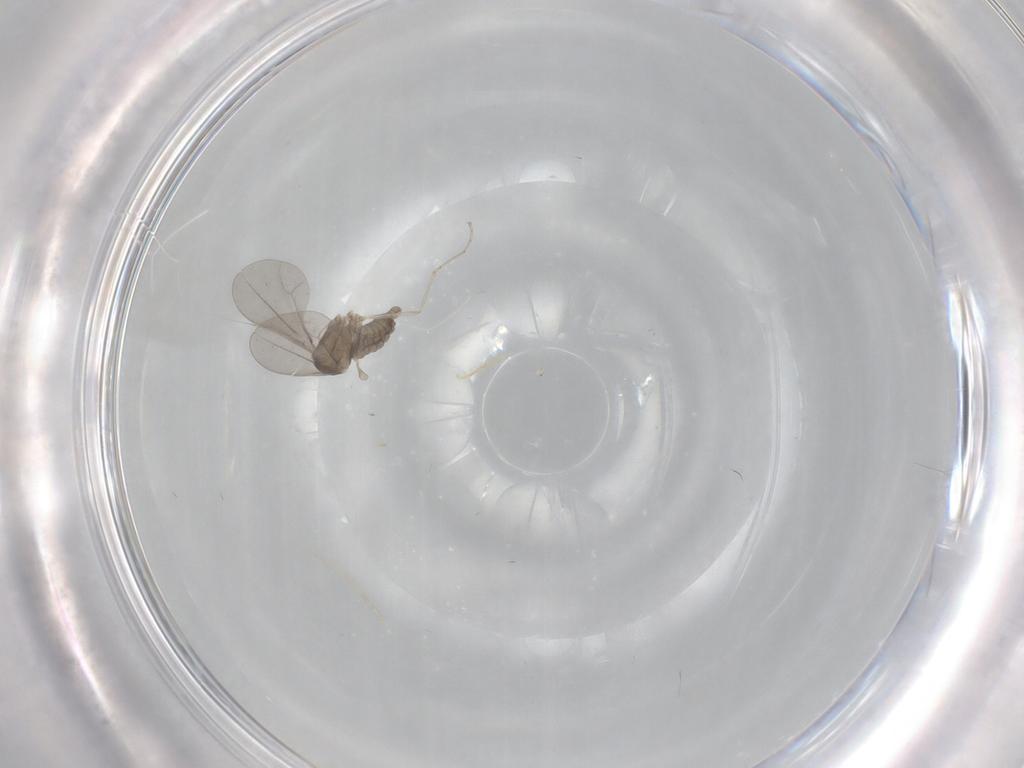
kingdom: Animalia
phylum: Arthropoda
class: Insecta
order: Diptera
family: Cecidomyiidae
